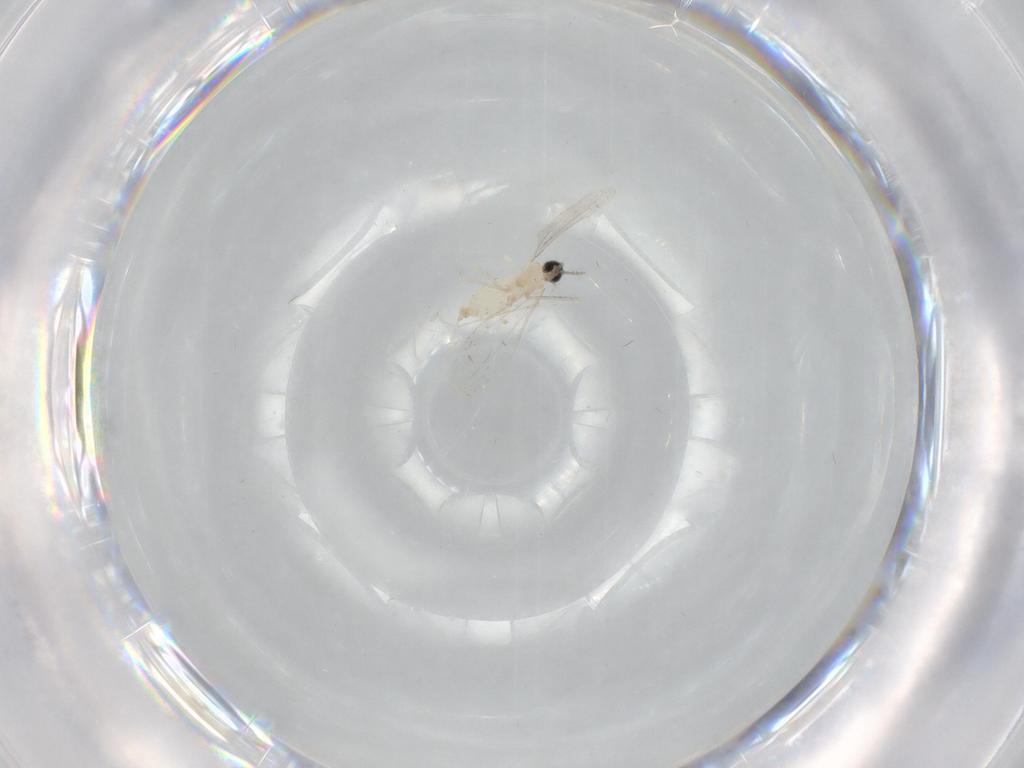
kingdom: Animalia
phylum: Arthropoda
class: Insecta
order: Diptera
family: Cecidomyiidae
